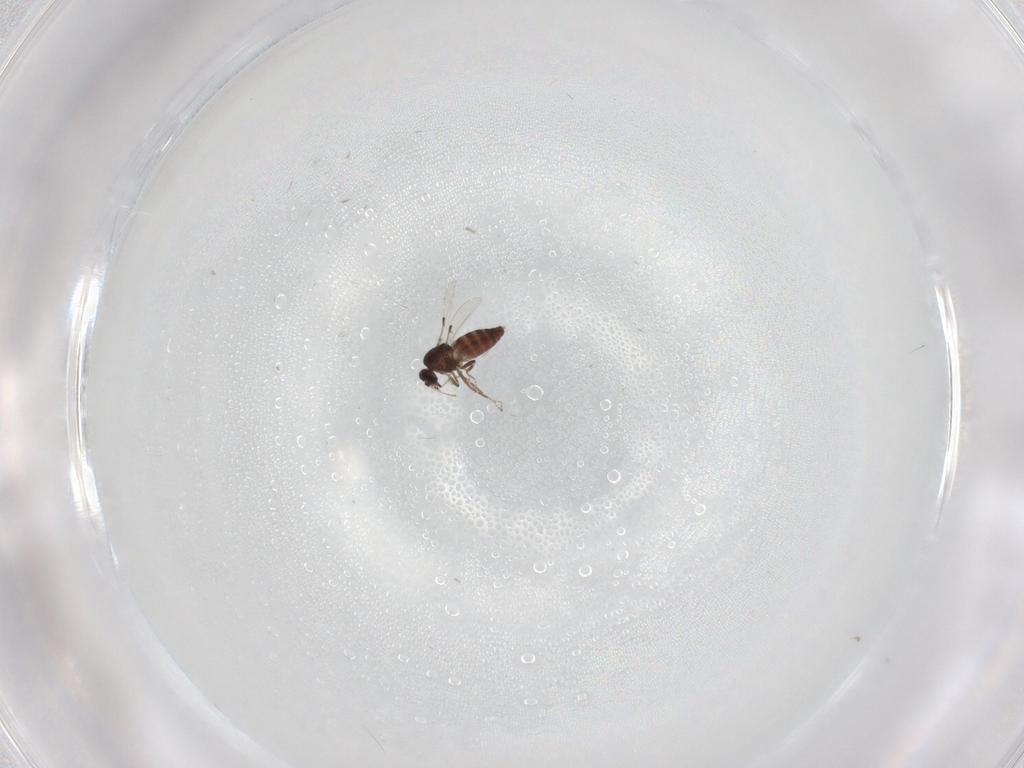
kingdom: Animalia
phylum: Arthropoda
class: Insecta
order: Diptera
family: Ceratopogonidae
